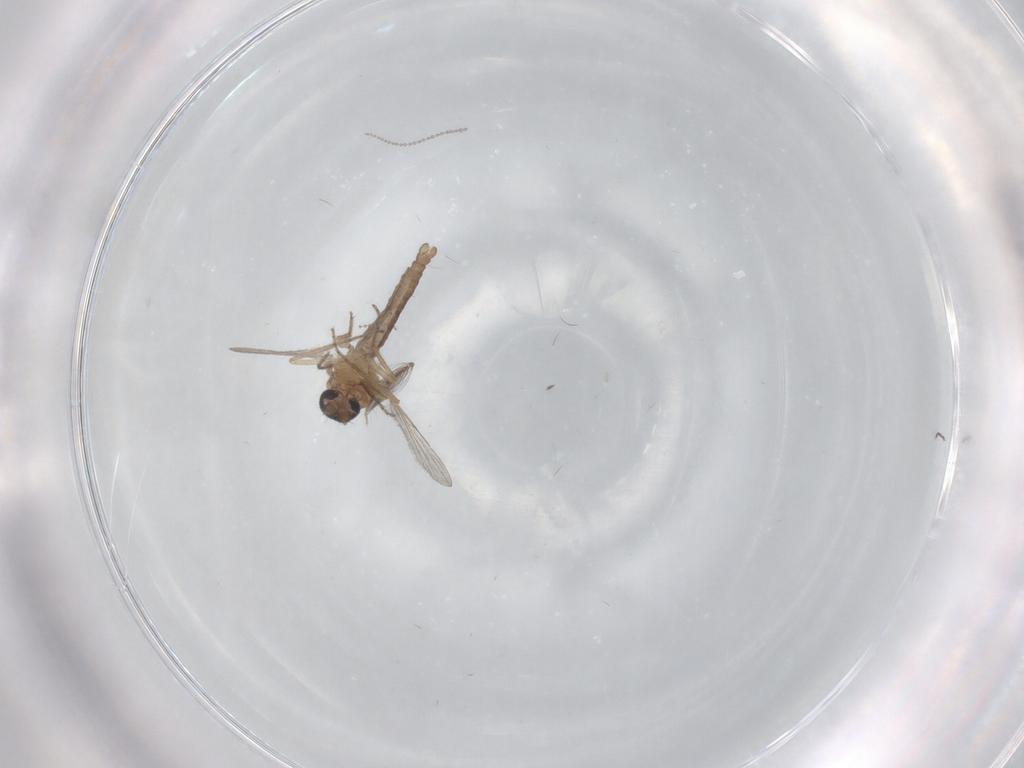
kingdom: Animalia
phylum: Arthropoda
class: Insecta
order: Diptera
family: Ceratopogonidae
